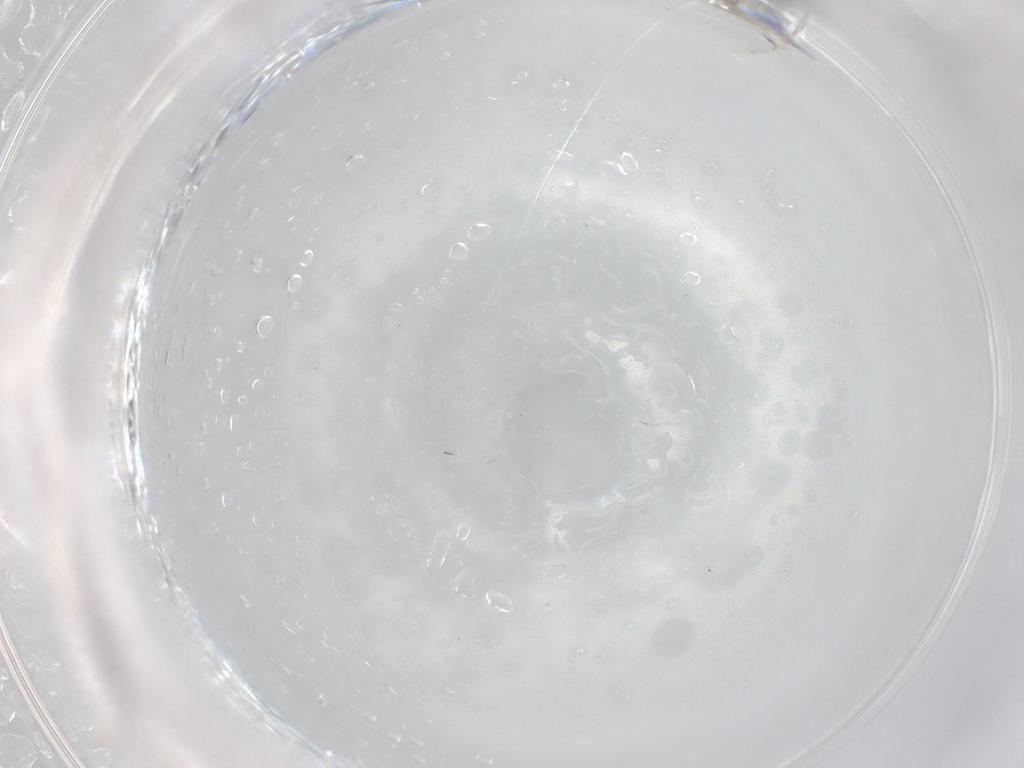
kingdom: Animalia
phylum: Arthropoda
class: Insecta
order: Diptera
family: Cecidomyiidae
